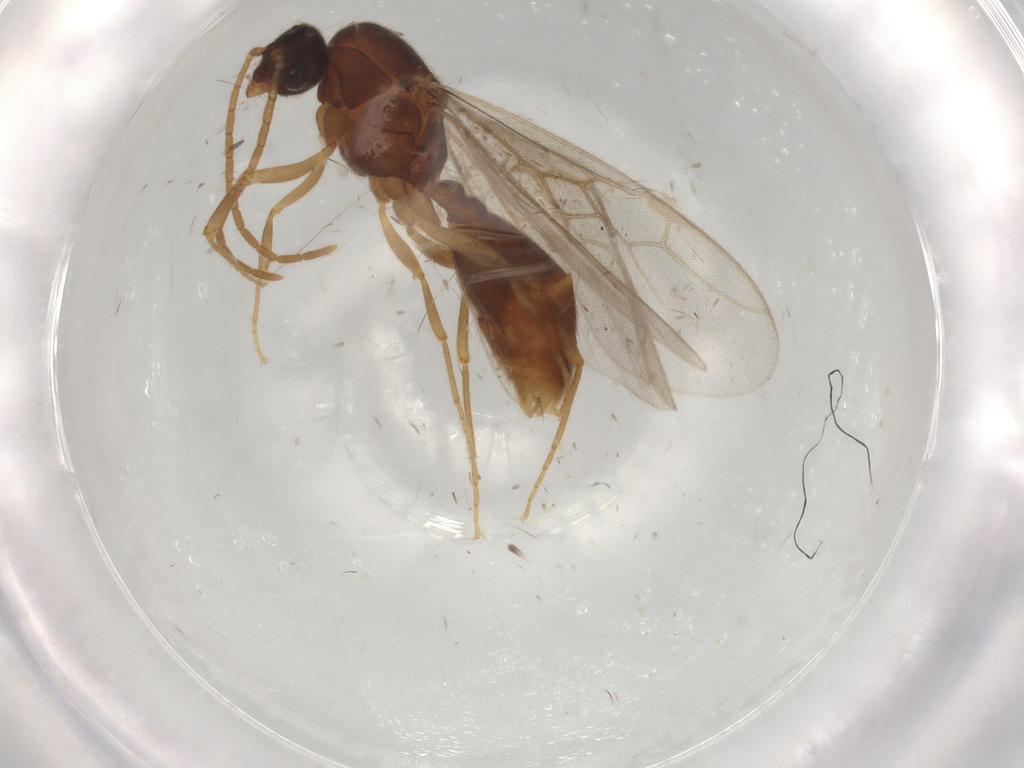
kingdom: Animalia
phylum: Arthropoda
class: Insecta
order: Hymenoptera
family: Formicidae
